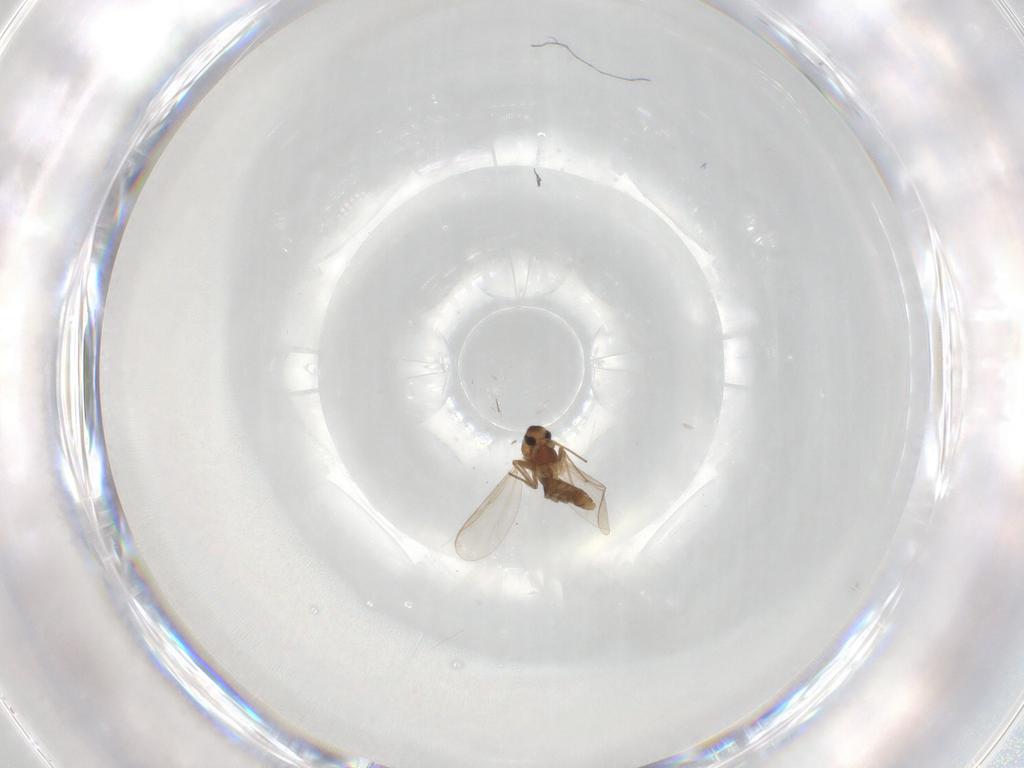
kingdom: Animalia
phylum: Arthropoda
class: Insecta
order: Diptera
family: Chironomidae
